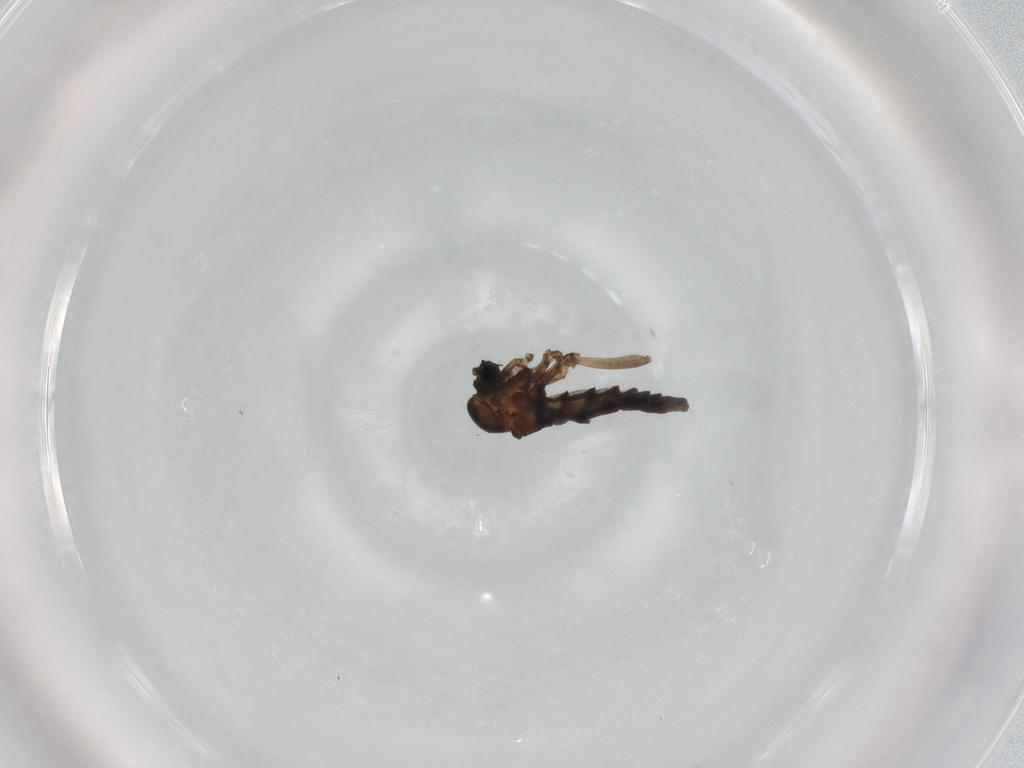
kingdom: Animalia
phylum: Arthropoda
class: Insecta
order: Diptera
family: Sciaridae
